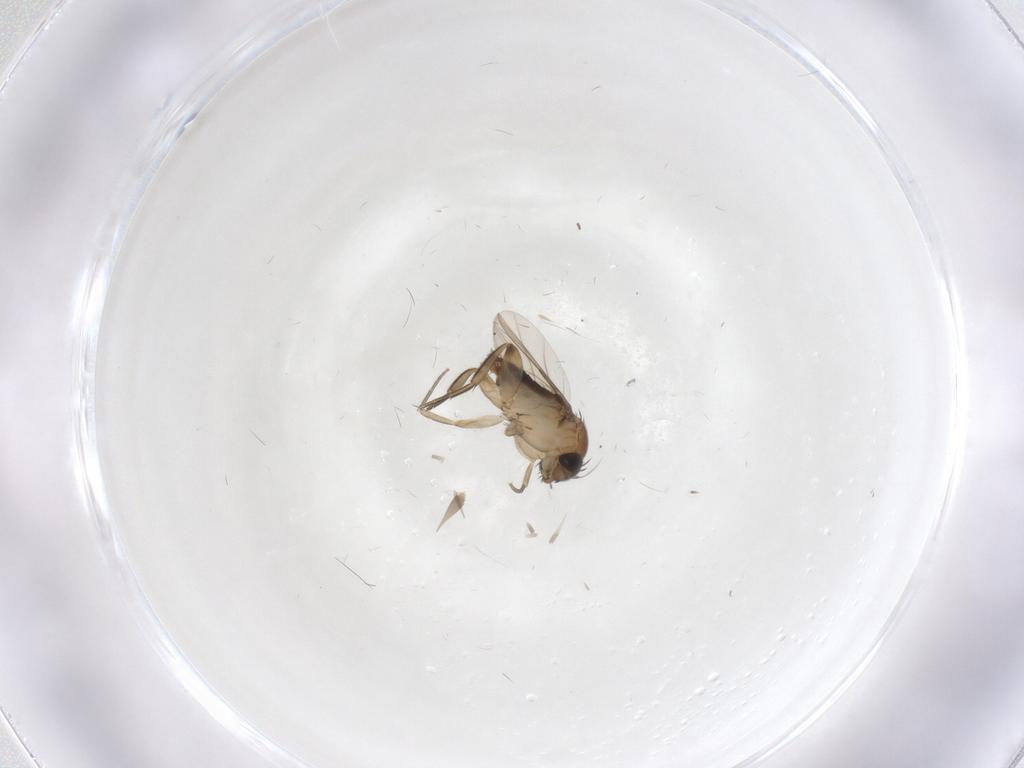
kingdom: Animalia
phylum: Arthropoda
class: Insecta
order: Diptera
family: Phoridae
